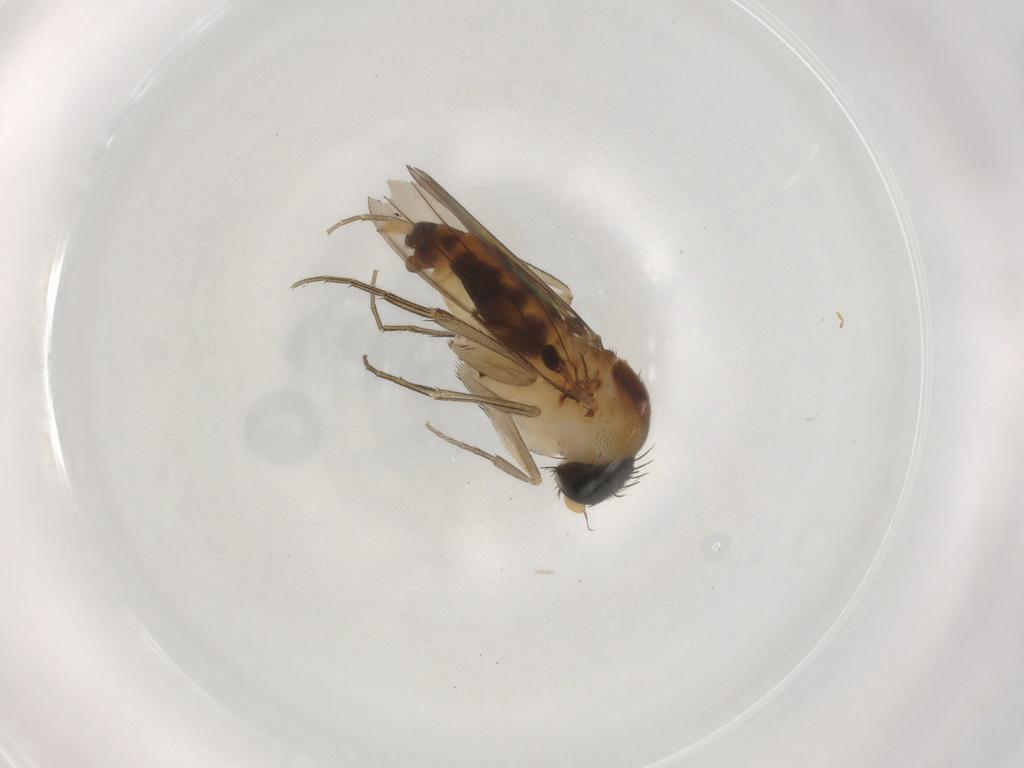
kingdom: Animalia
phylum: Arthropoda
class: Insecta
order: Diptera
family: Phoridae
